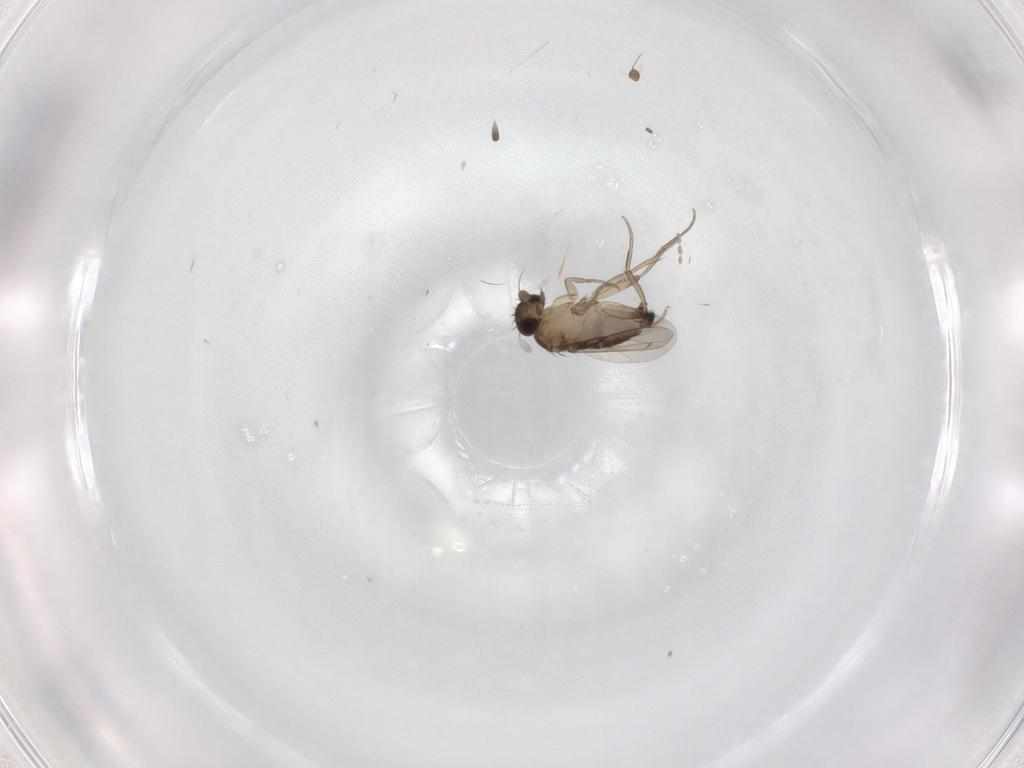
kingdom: Animalia
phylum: Arthropoda
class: Insecta
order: Diptera
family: Phoridae
